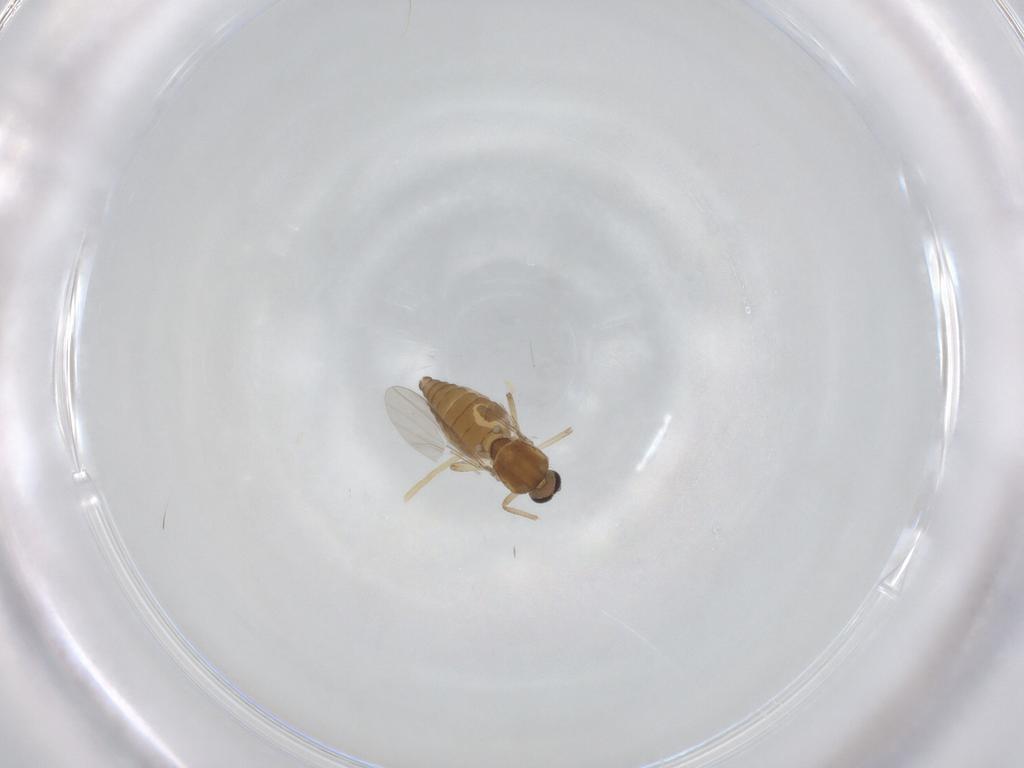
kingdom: Animalia
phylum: Arthropoda
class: Insecta
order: Diptera
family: Ceratopogonidae
